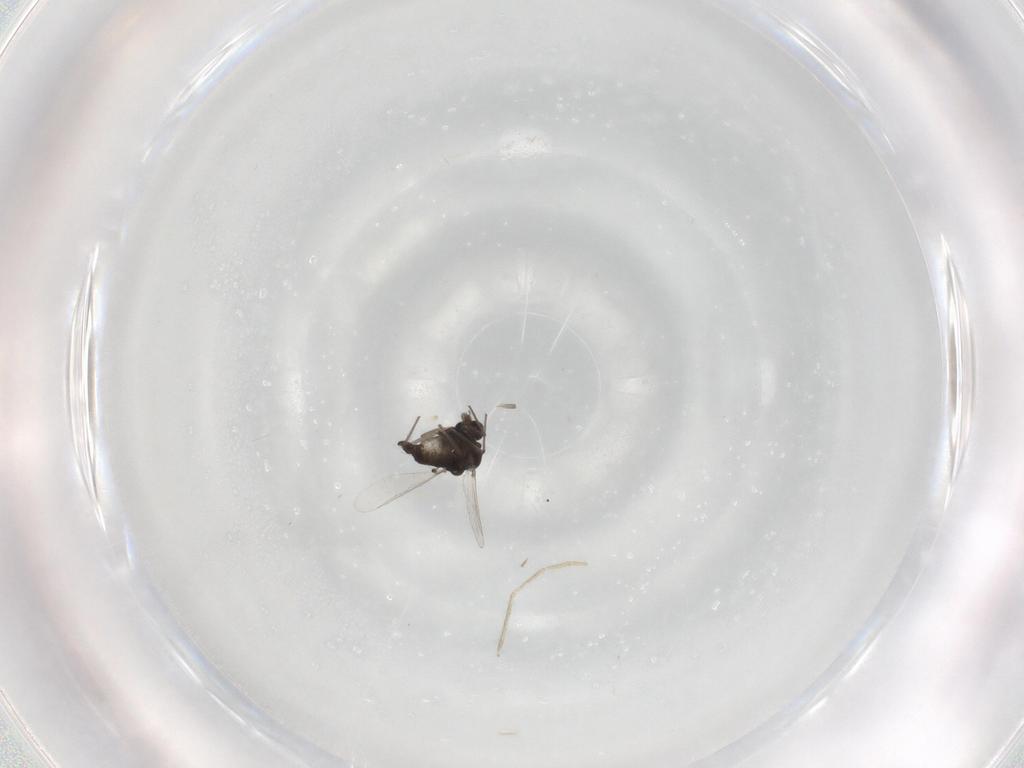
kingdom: Animalia
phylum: Arthropoda
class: Insecta
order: Diptera
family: Chironomidae
